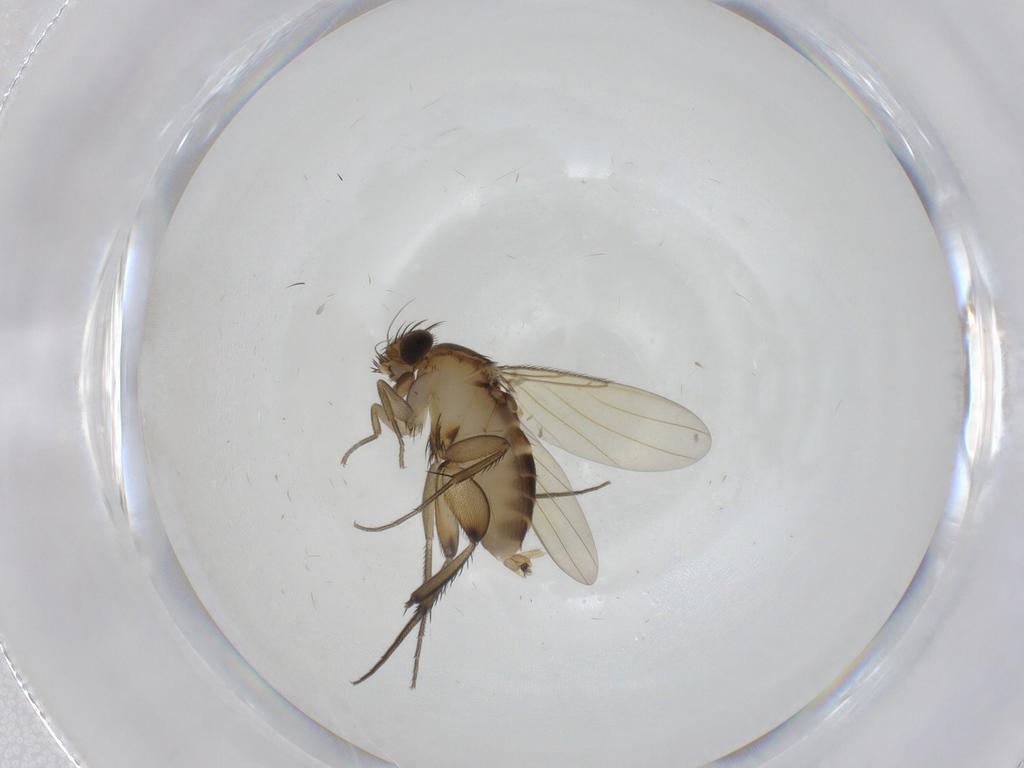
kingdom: Animalia
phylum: Arthropoda
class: Insecta
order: Diptera
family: Phoridae
